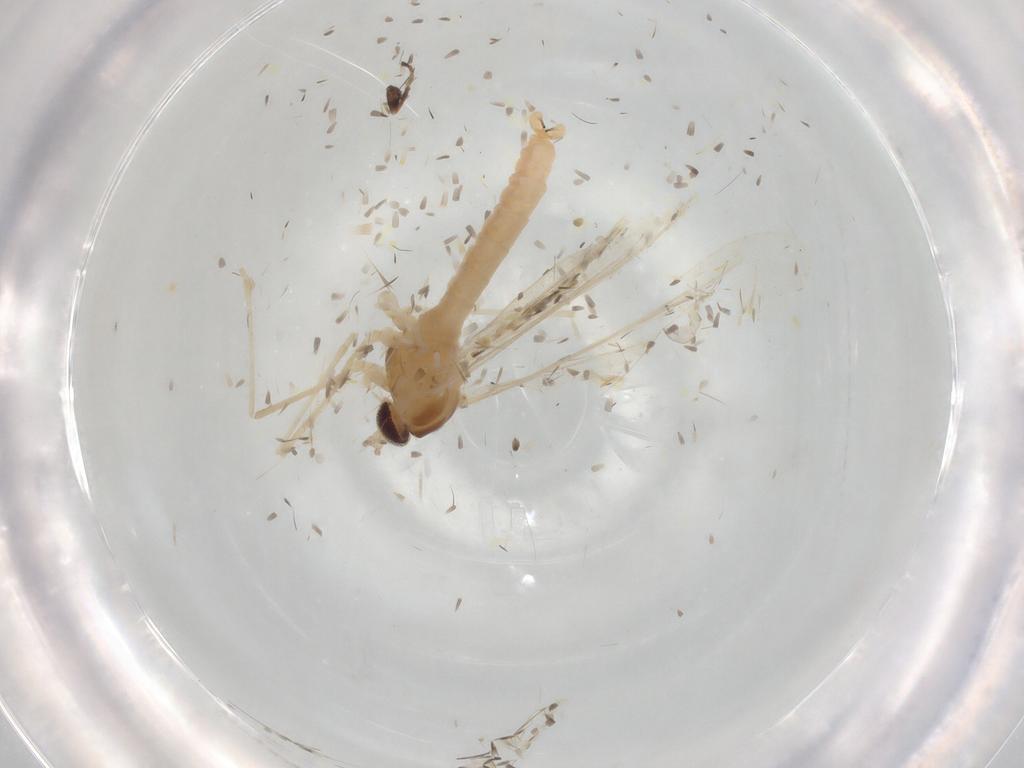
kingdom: Animalia
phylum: Arthropoda
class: Insecta
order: Diptera
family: Cecidomyiidae
